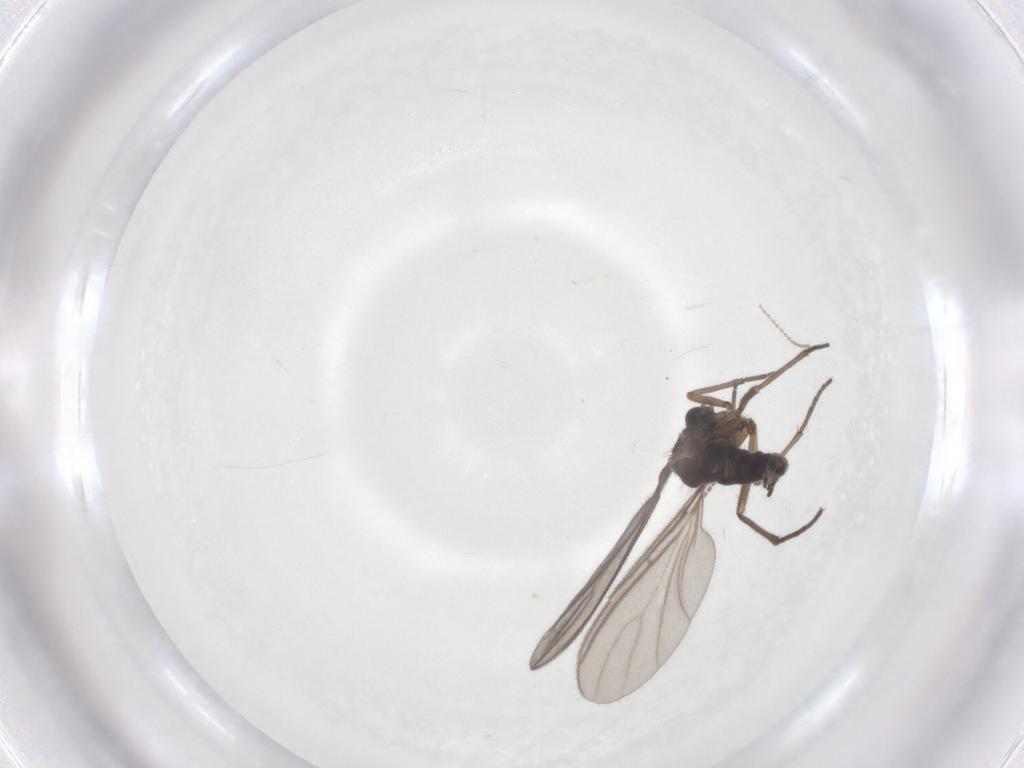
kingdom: Animalia
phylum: Arthropoda
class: Insecta
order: Diptera
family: Sciaridae
